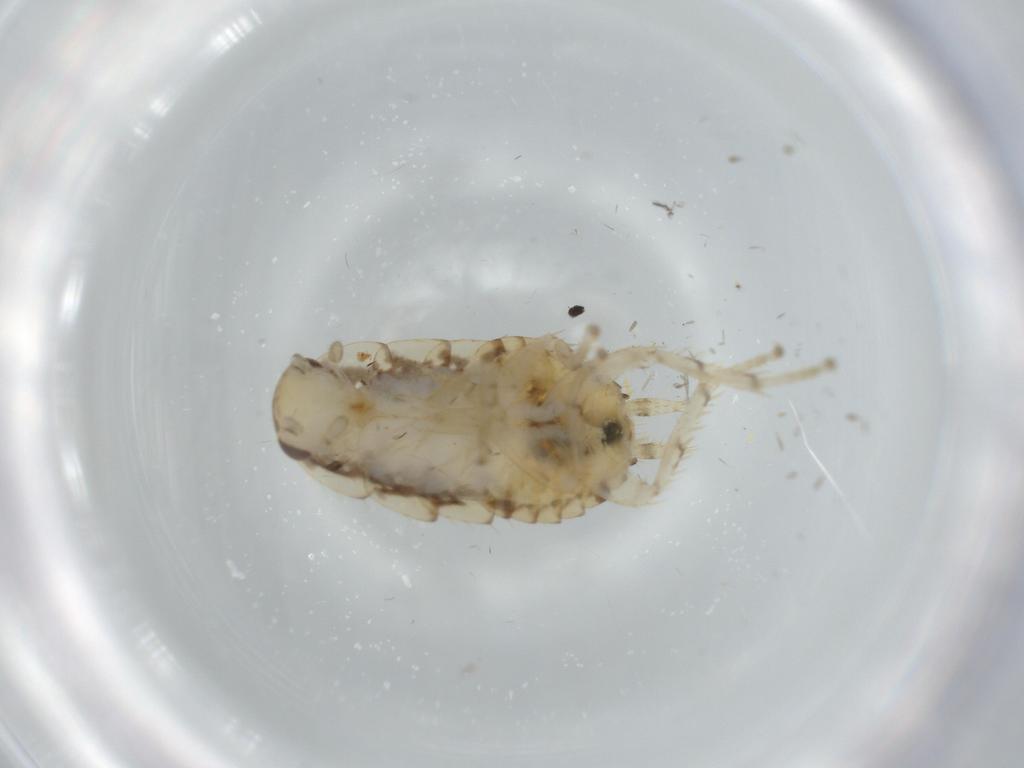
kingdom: Animalia
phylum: Arthropoda
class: Insecta
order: Blattodea
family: Ectobiidae
